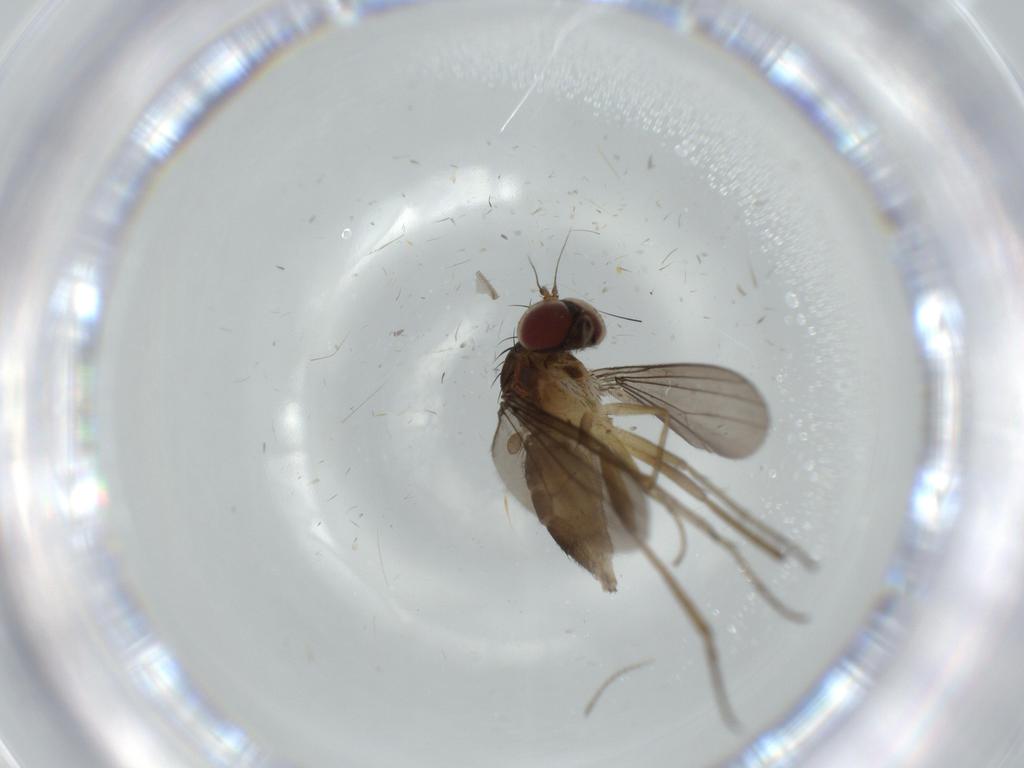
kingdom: Animalia
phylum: Arthropoda
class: Insecta
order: Diptera
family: Dolichopodidae
